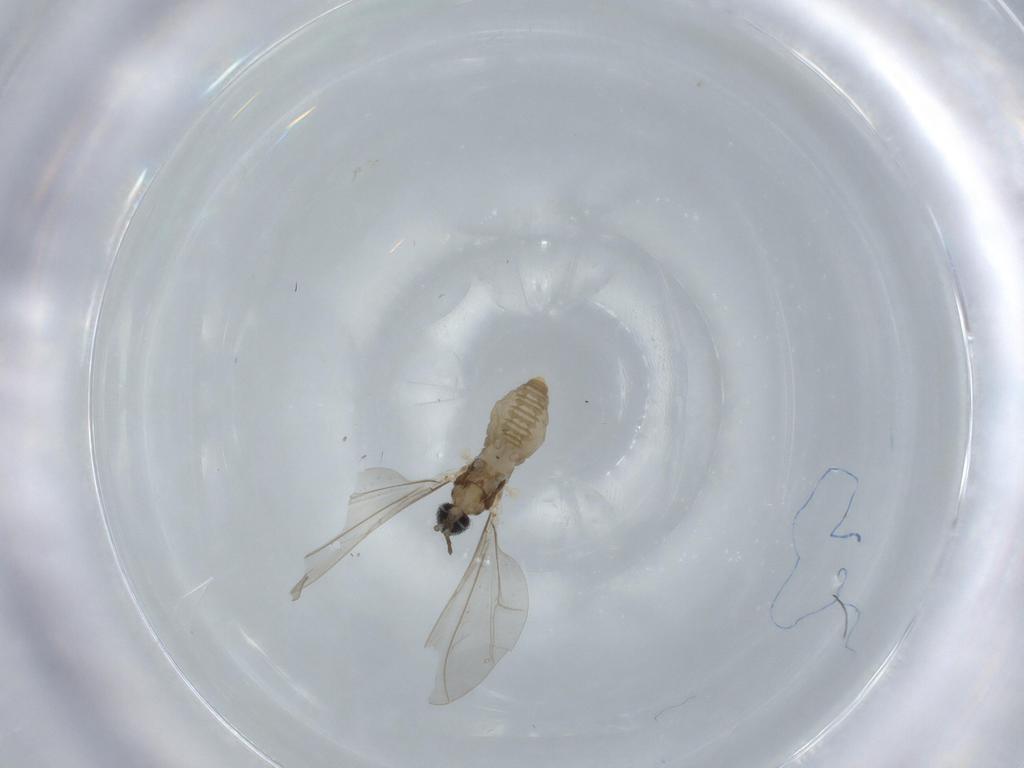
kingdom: Animalia
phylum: Arthropoda
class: Insecta
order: Diptera
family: Cecidomyiidae
